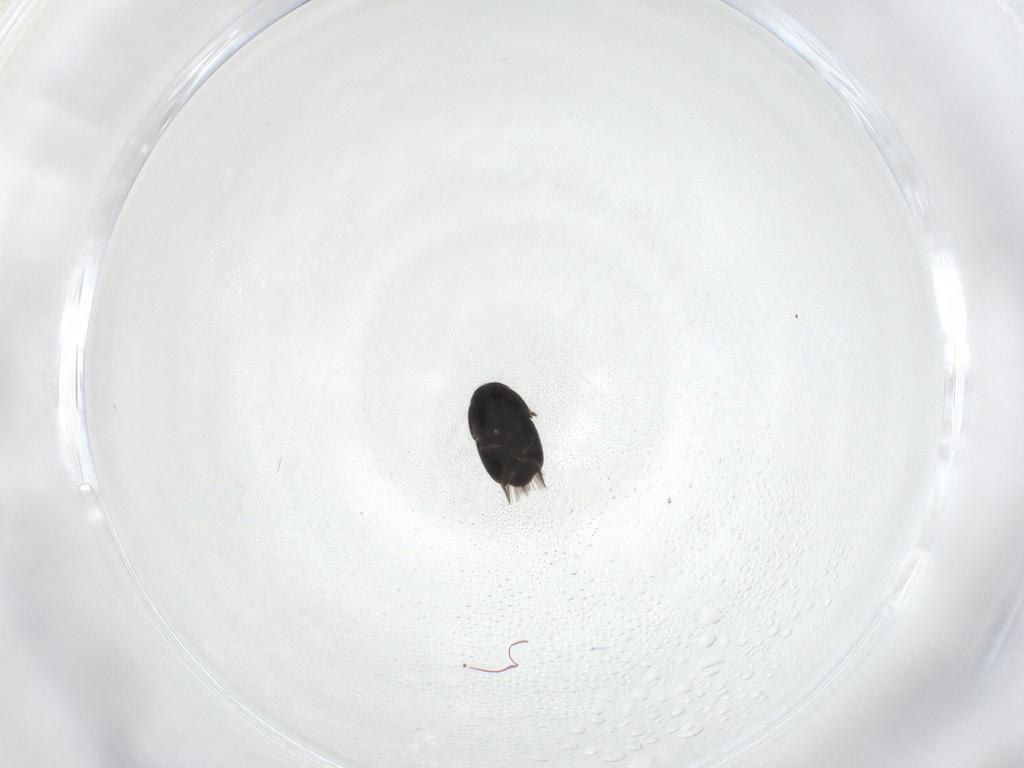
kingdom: Animalia
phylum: Arthropoda
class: Insecta
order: Coleoptera
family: Ptiliidae
